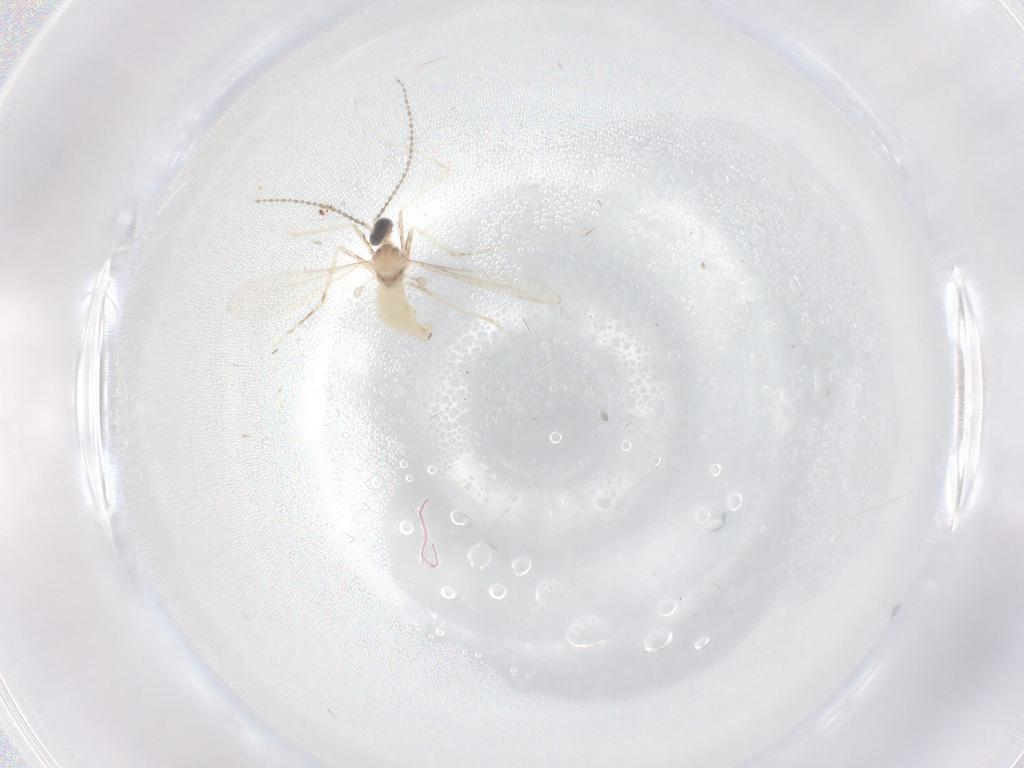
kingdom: Animalia
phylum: Arthropoda
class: Insecta
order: Diptera
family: Cecidomyiidae
